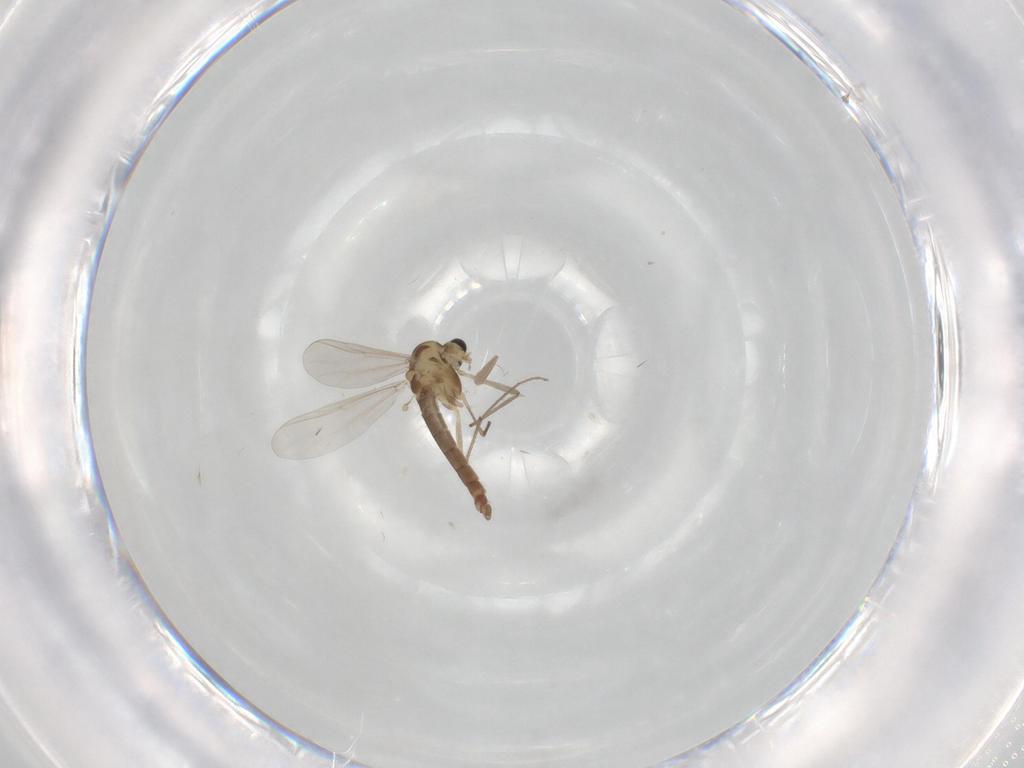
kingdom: Animalia
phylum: Arthropoda
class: Insecta
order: Diptera
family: Chironomidae
